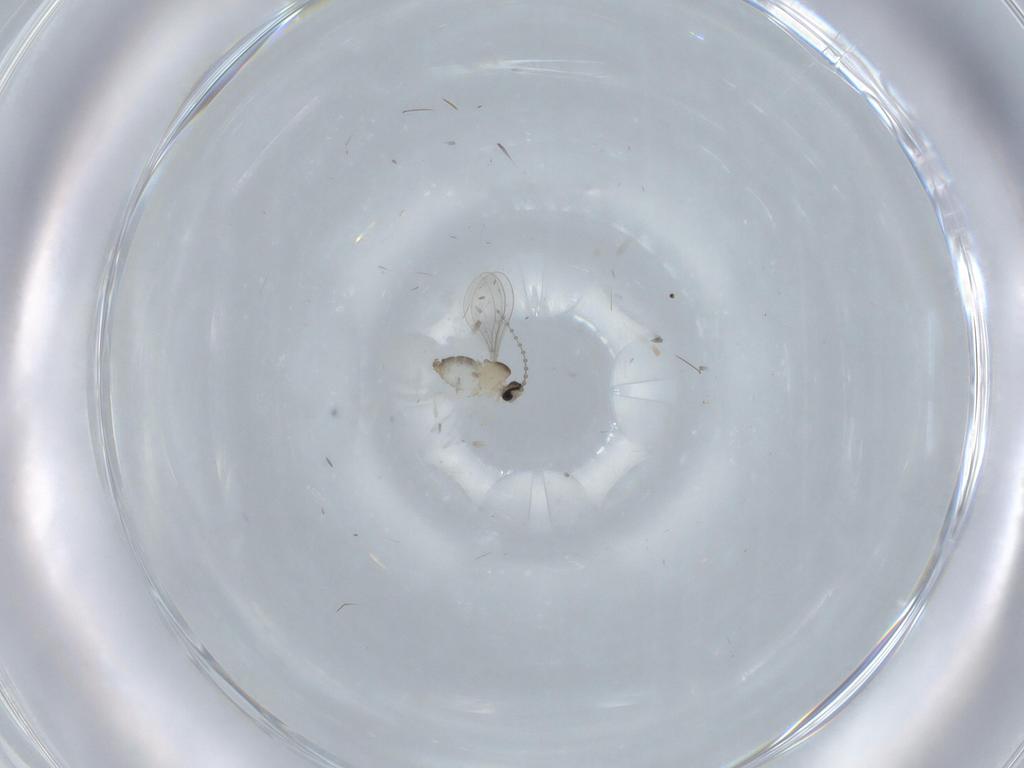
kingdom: Animalia
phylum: Arthropoda
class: Insecta
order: Diptera
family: Cecidomyiidae
